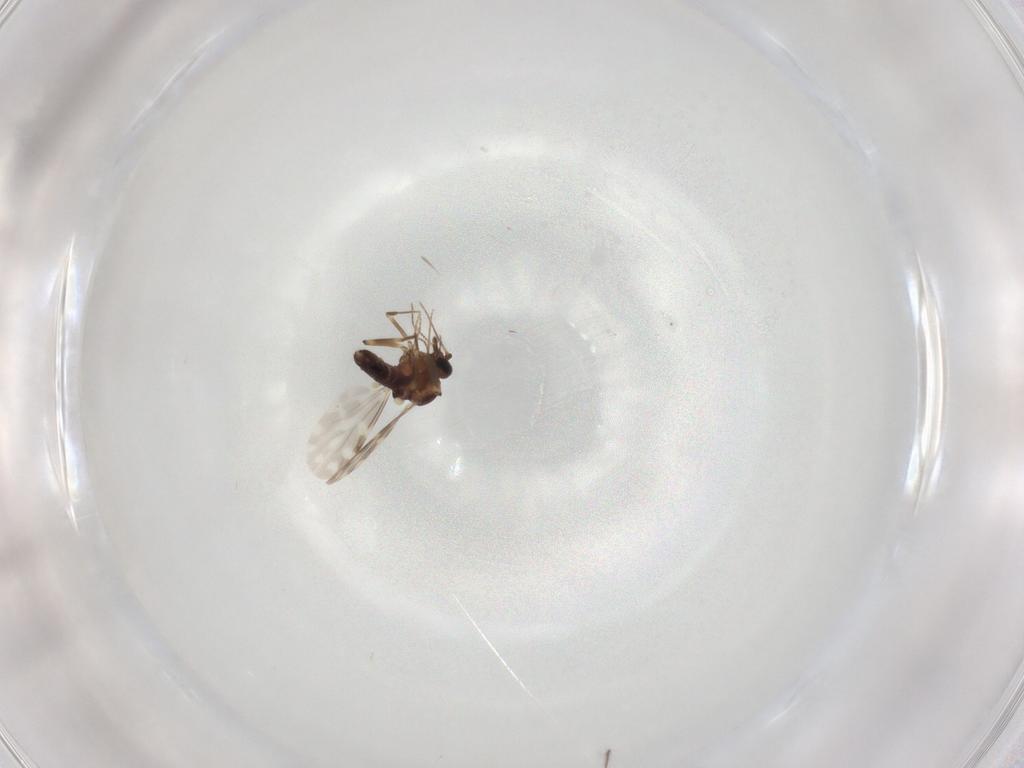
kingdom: Animalia
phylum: Arthropoda
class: Insecta
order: Diptera
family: Ceratopogonidae
